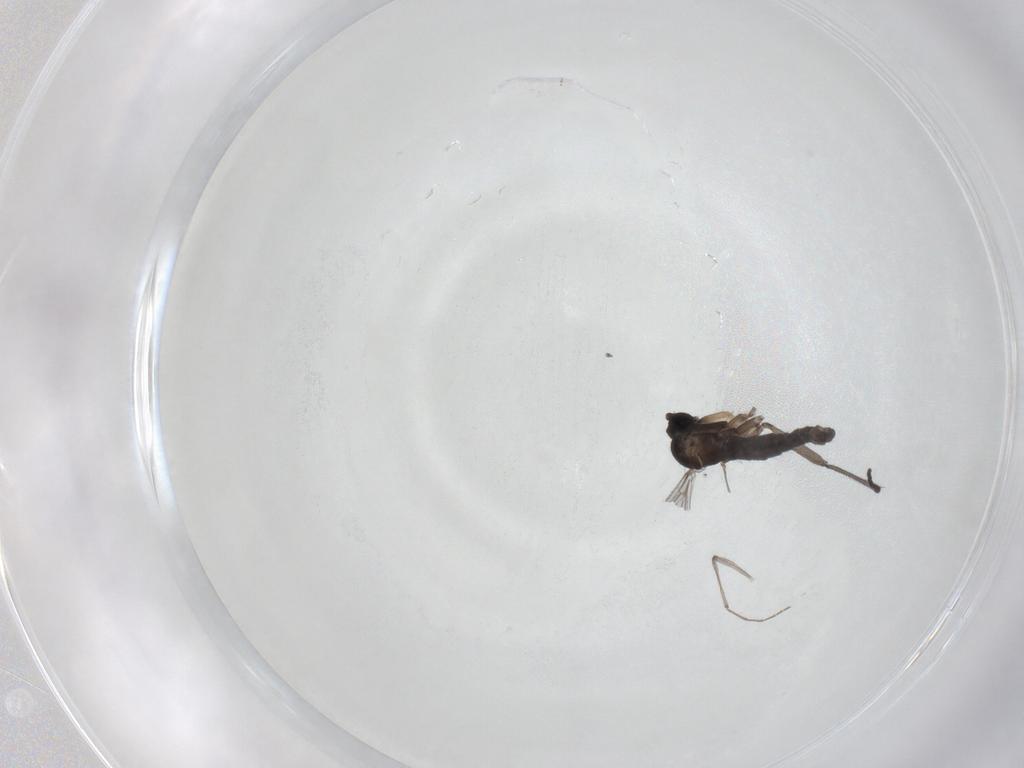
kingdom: Animalia
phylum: Arthropoda
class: Insecta
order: Diptera
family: Sciaridae
